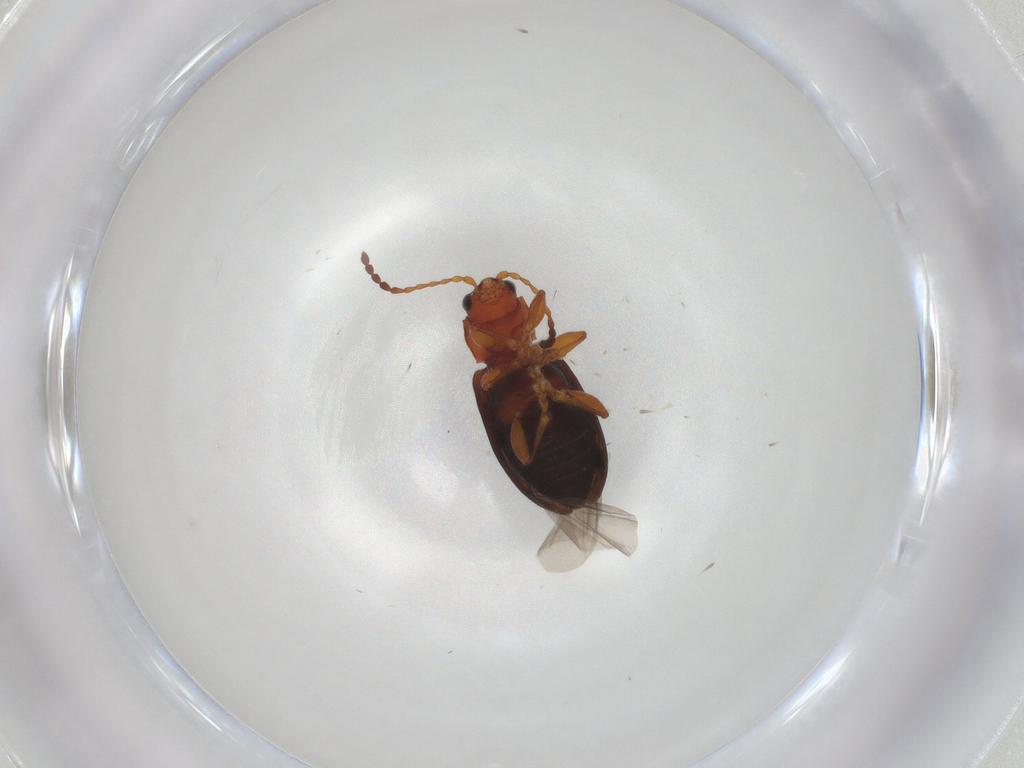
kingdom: Animalia
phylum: Arthropoda
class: Insecta
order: Coleoptera
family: Chrysomelidae
